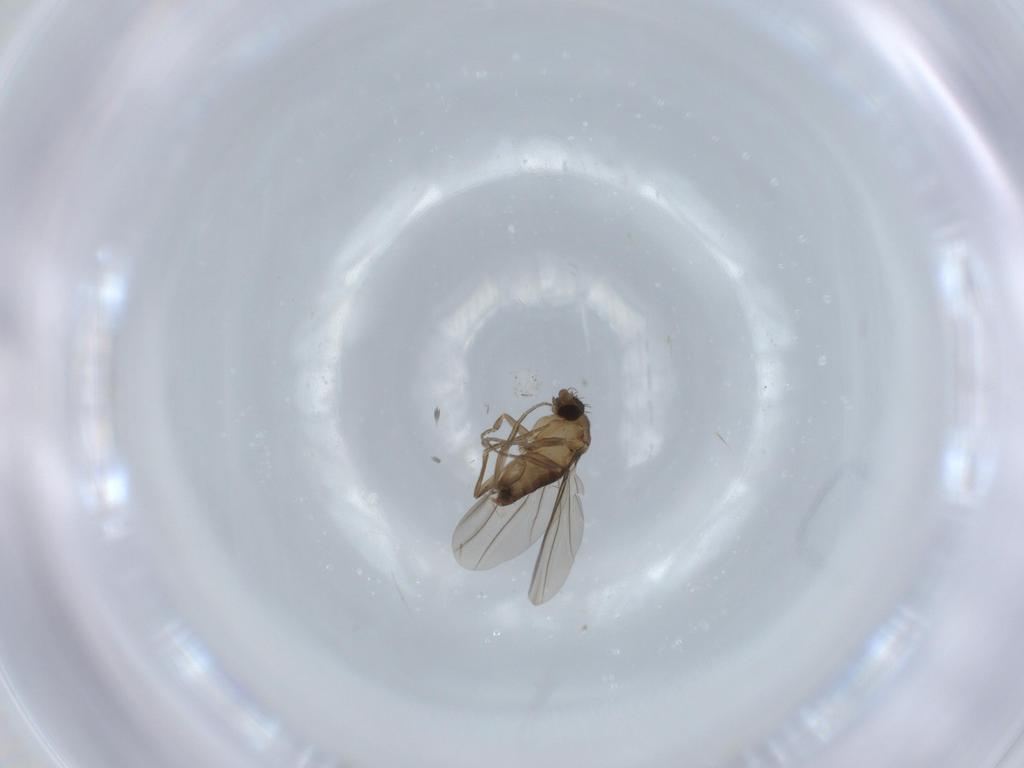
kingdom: Animalia
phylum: Arthropoda
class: Insecta
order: Diptera
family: Phoridae
